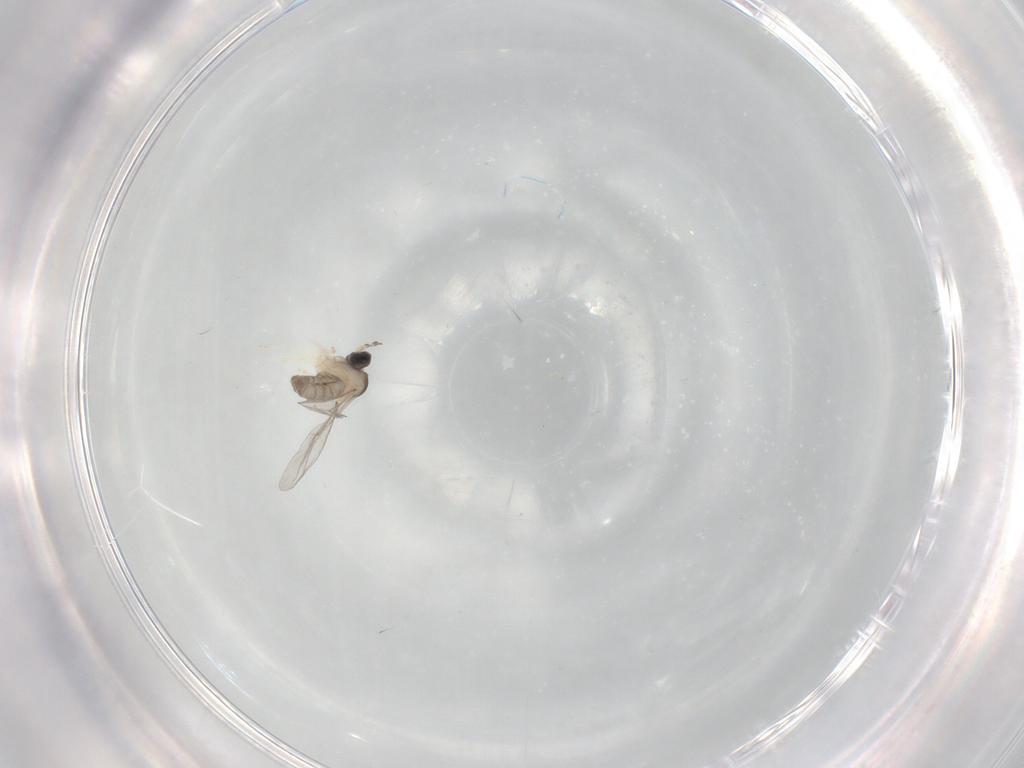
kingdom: Animalia
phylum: Arthropoda
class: Insecta
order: Diptera
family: Cecidomyiidae
